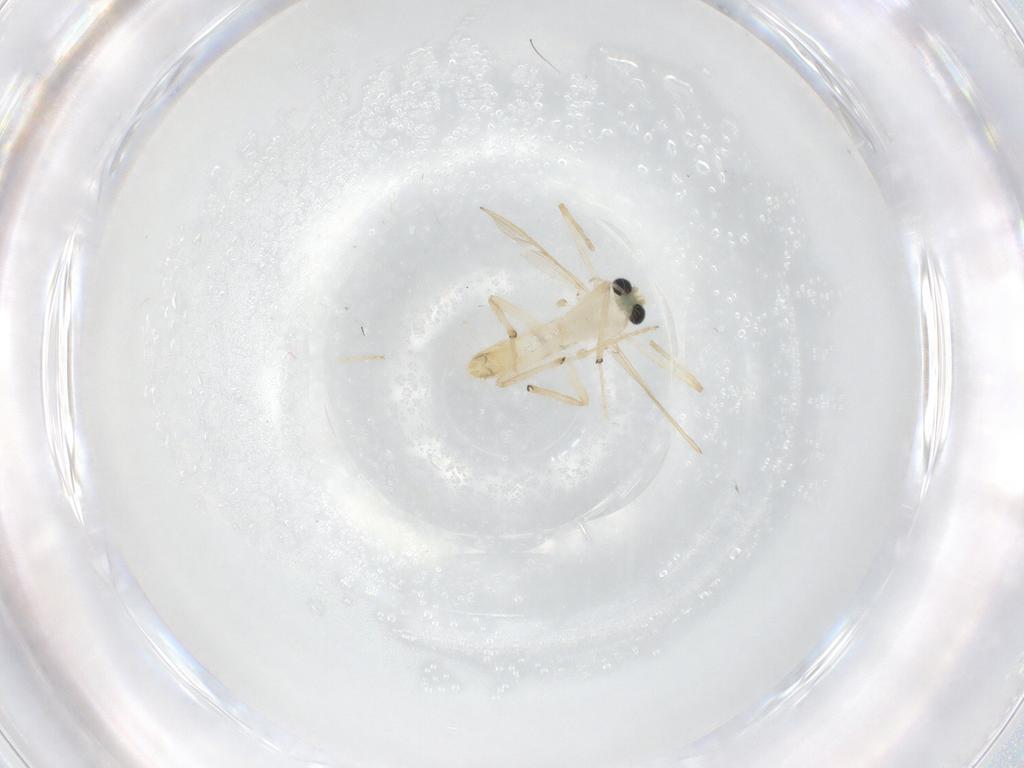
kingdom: Animalia
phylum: Arthropoda
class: Insecta
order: Diptera
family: Chironomidae
